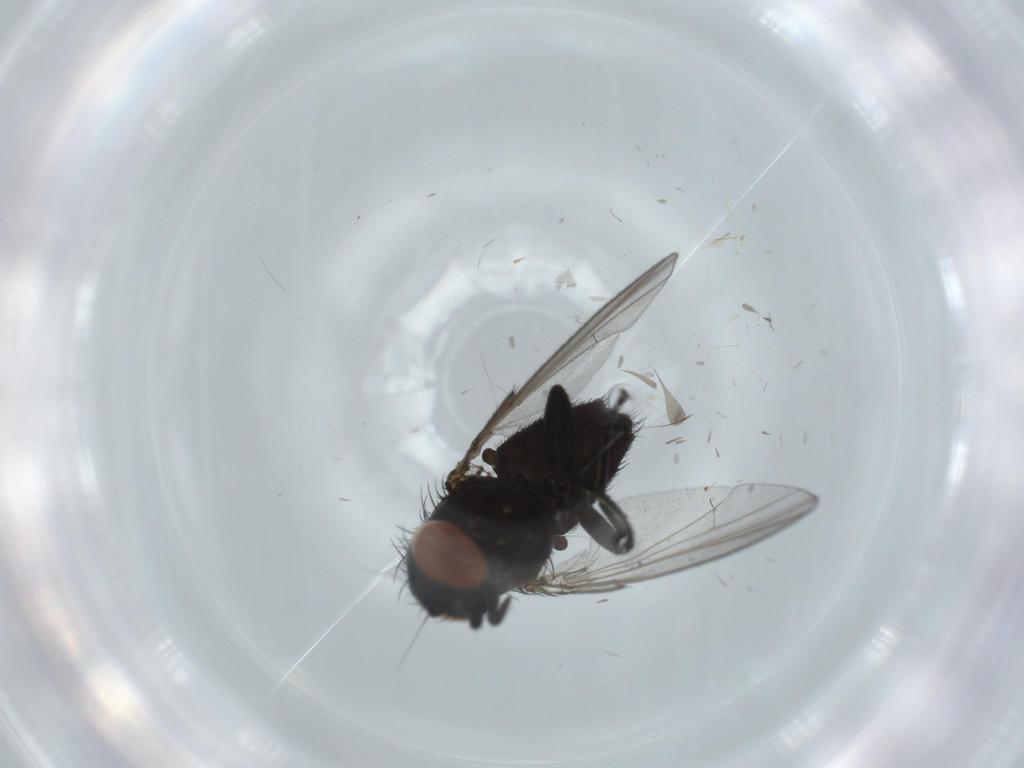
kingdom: Animalia
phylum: Arthropoda
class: Insecta
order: Diptera
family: Milichiidae
